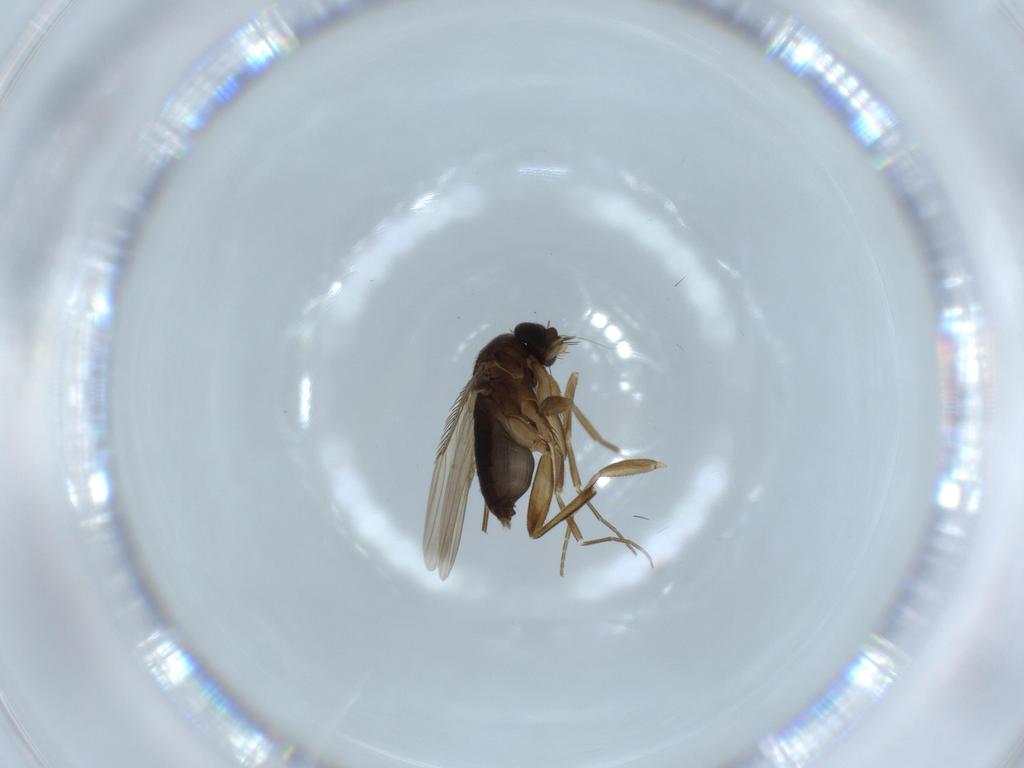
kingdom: Animalia
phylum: Arthropoda
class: Insecta
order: Diptera
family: Phoridae
